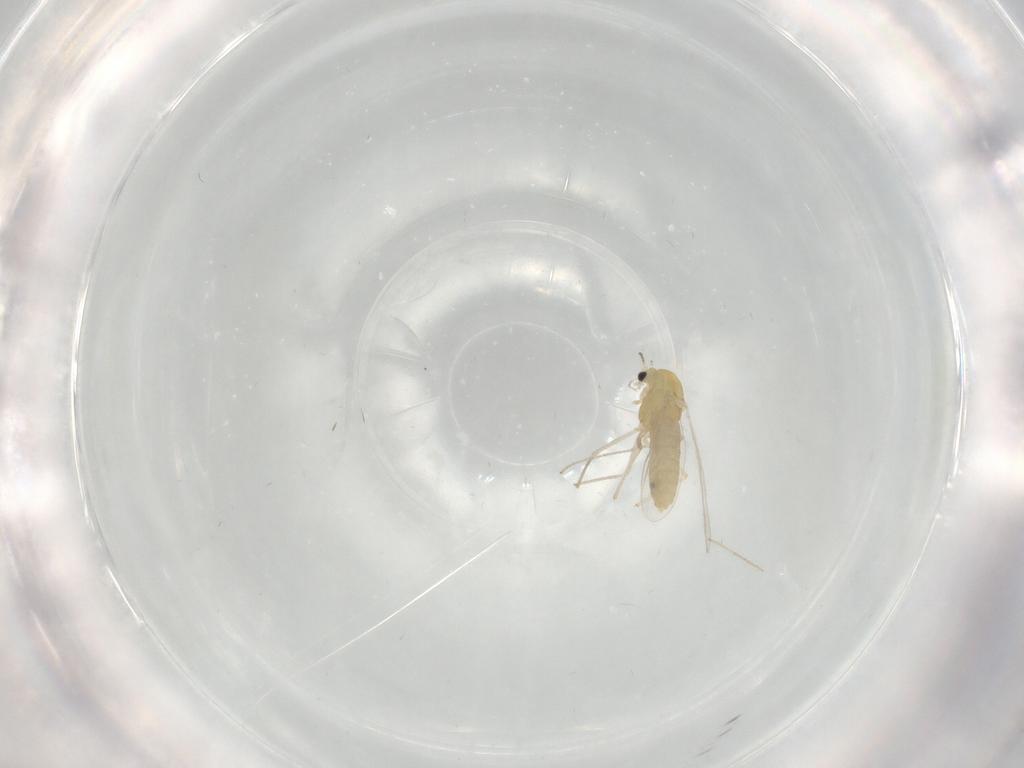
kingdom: Animalia
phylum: Arthropoda
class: Insecta
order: Diptera
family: Chironomidae
